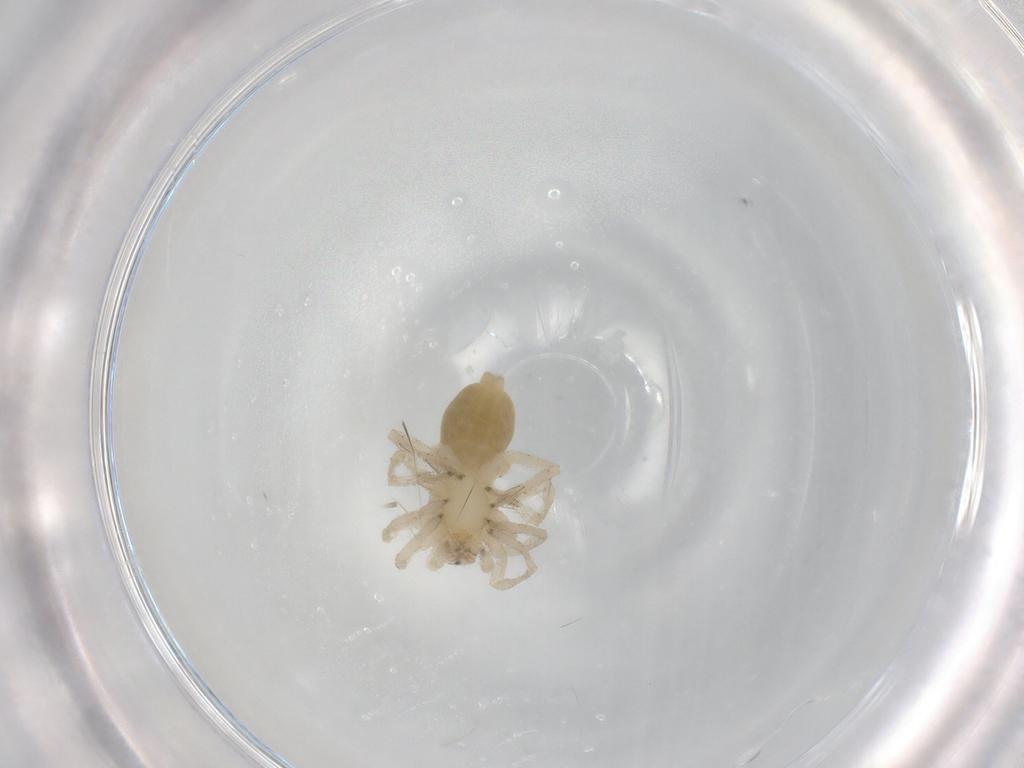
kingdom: Animalia
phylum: Arthropoda
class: Arachnida
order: Araneae
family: Clubionidae
